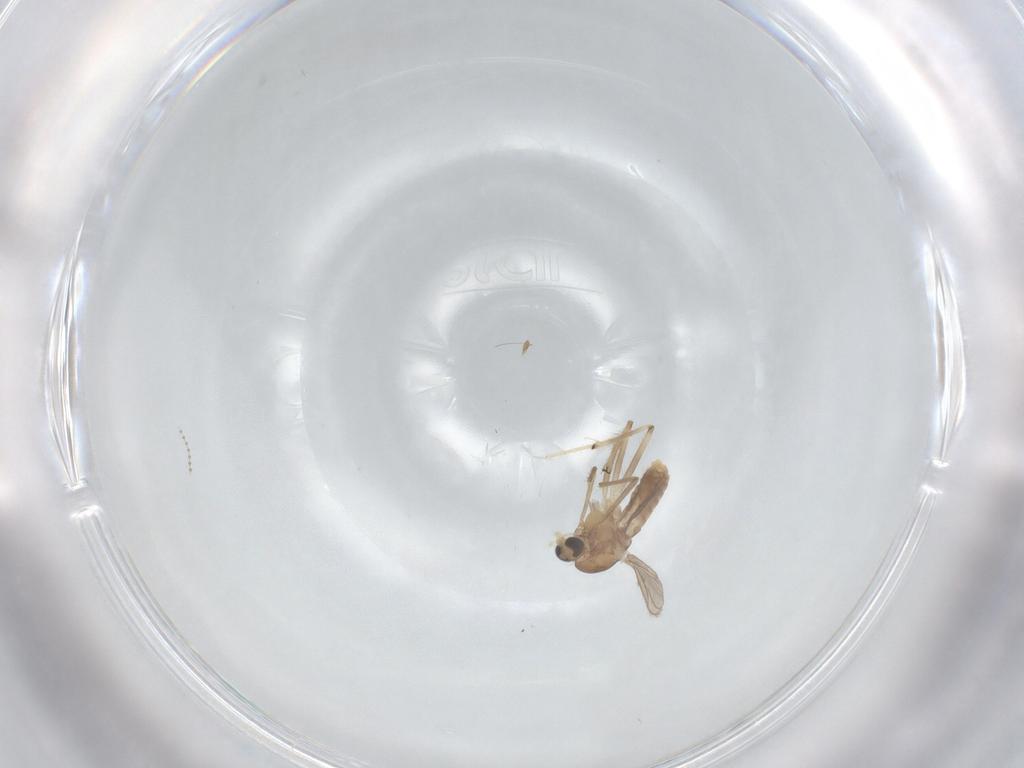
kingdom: Animalia
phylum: Arthropoda
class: Insecta
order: Diptera
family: Chironomidae
